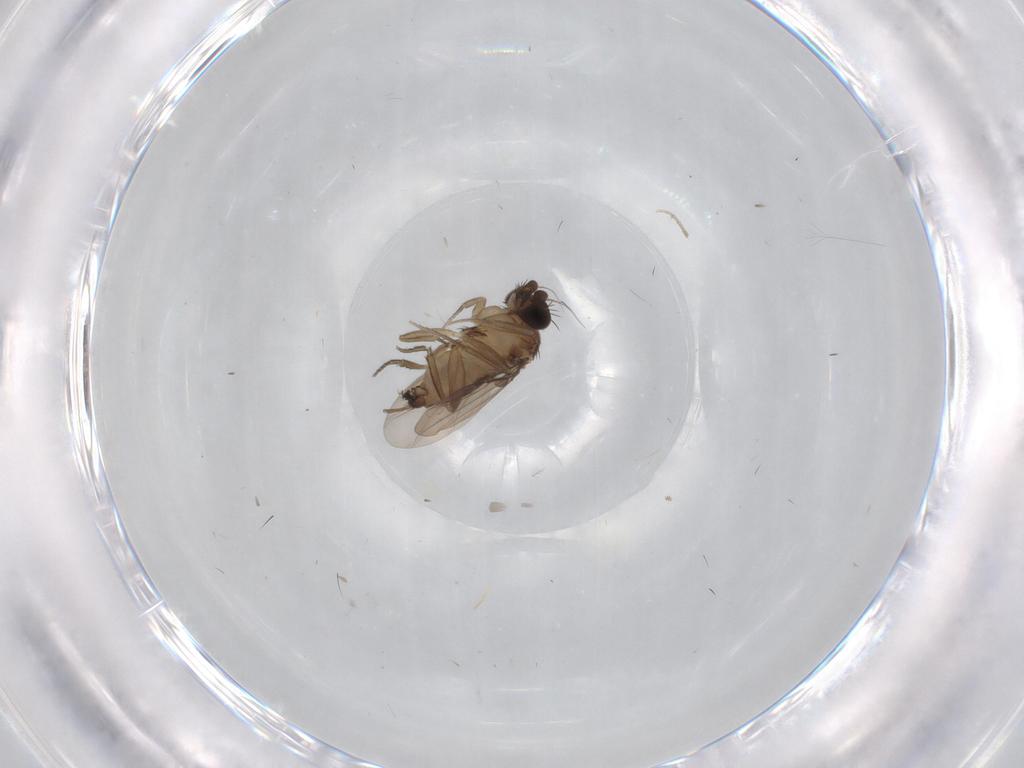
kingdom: Animalia
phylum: Arthropoda
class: Insecta
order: Diptera
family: Phoridae
